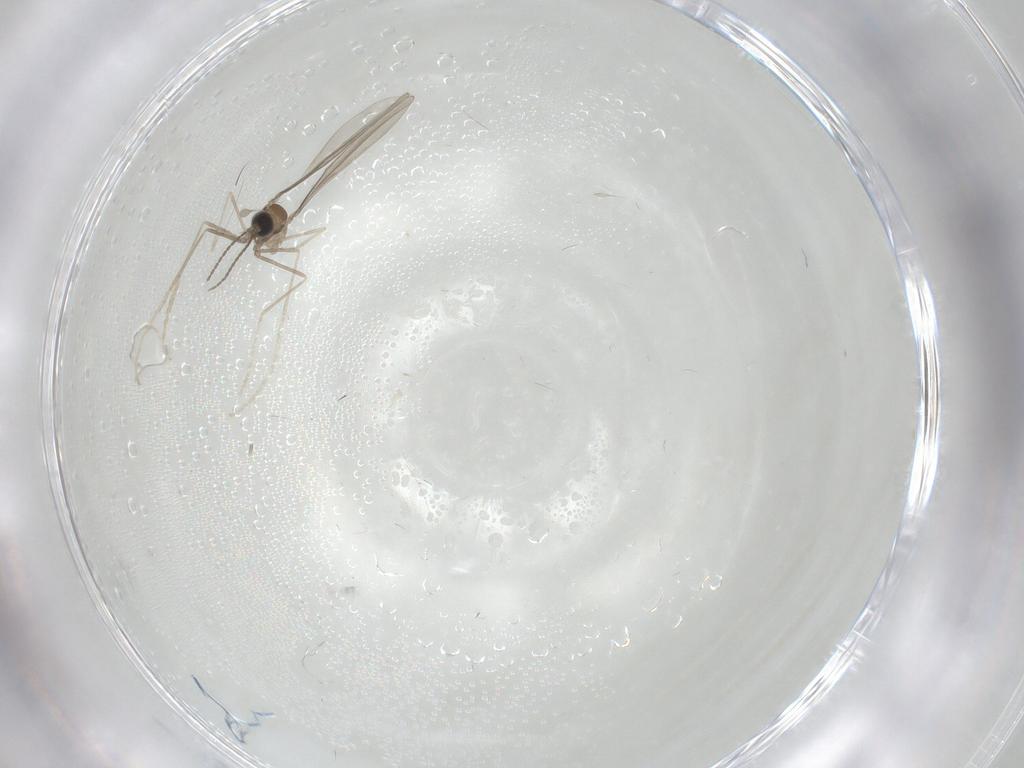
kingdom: Animalia
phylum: Arthropoda
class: Insecta
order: Diptera
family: Cecidomyiidae
